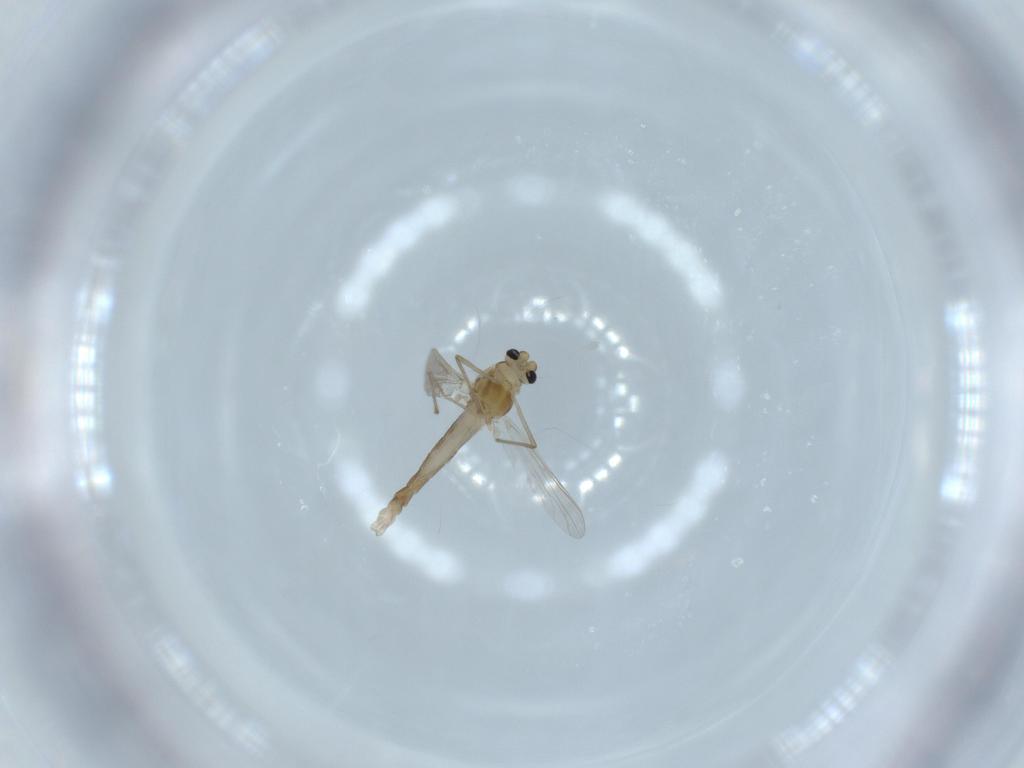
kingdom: Animalia
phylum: Arthropoda
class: Insecta
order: Diptera
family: Chironomidae
